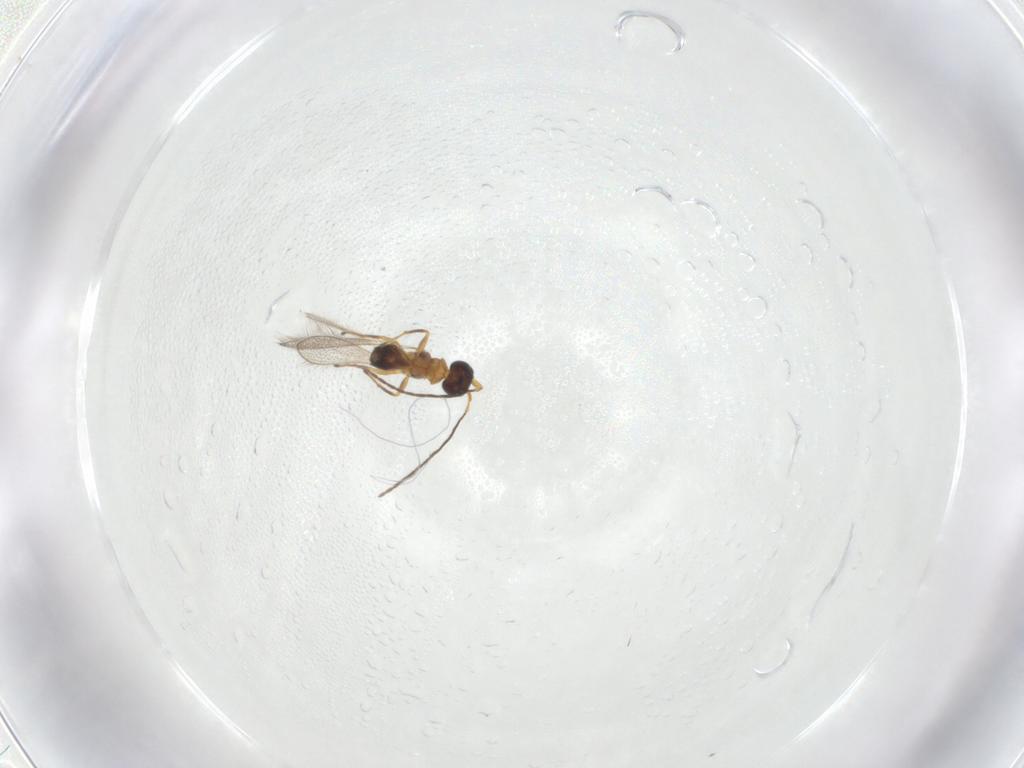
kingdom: Animalia
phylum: Arthropoda
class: Insecta
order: Hymenoptera
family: Mymaridae
